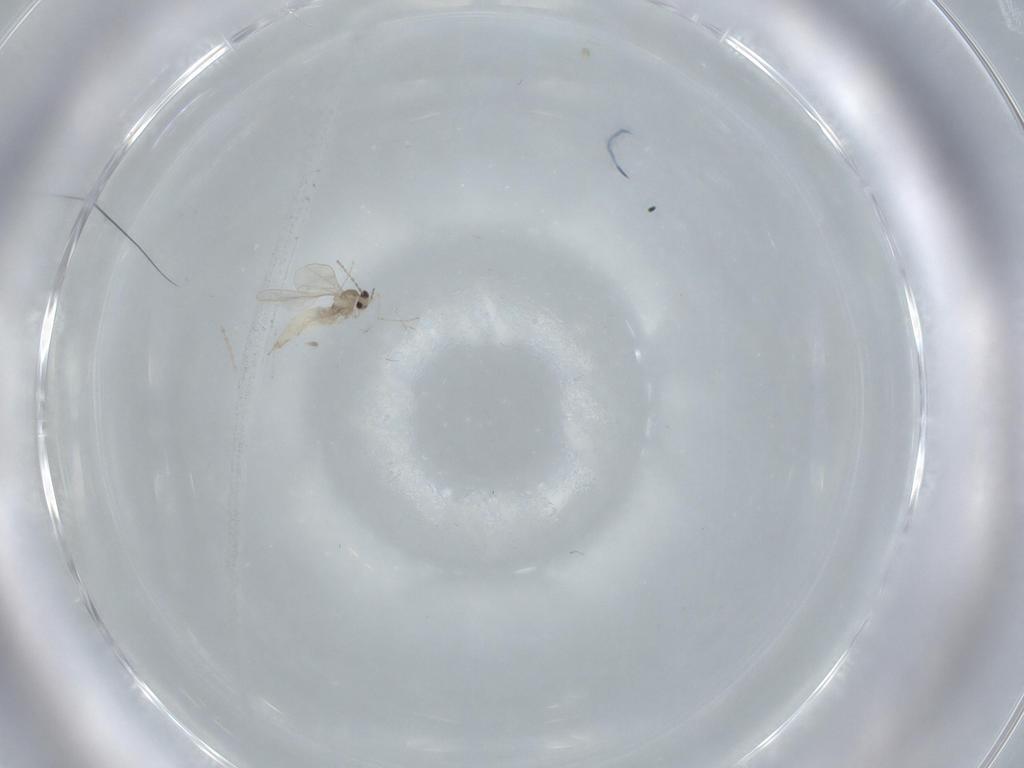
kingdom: Animalia
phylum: Arthropoda
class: Insecta
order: Diptera
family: Cecidomyiidae
